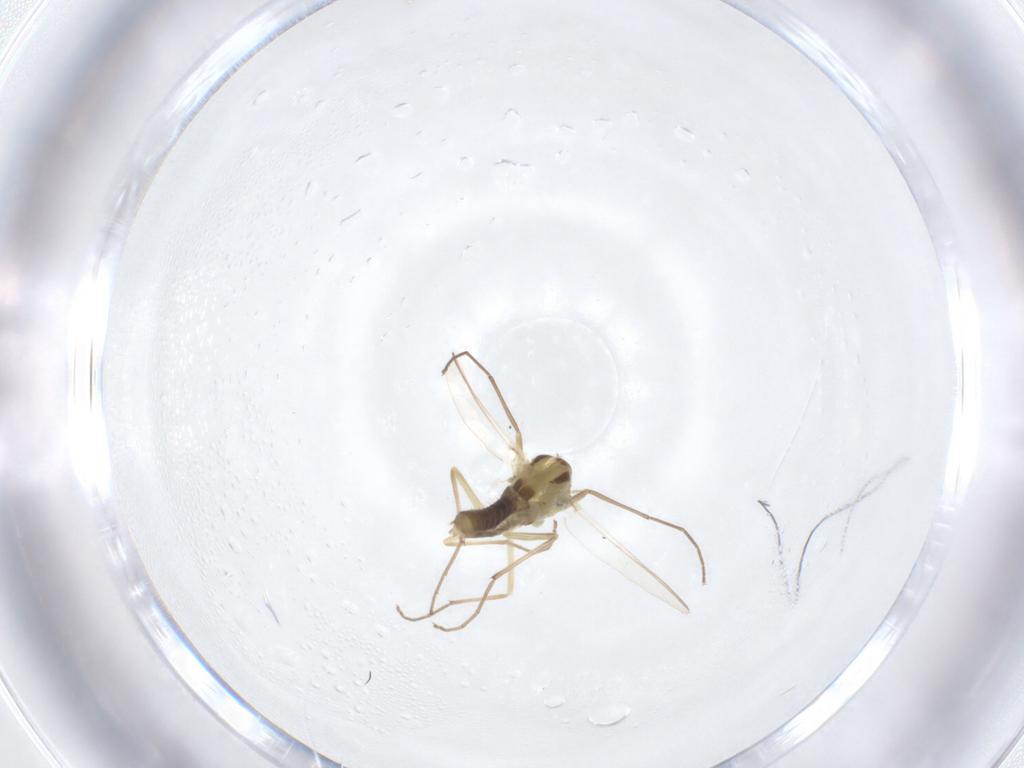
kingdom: Animalia
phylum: Arthropoda
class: Insecta
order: Diptera
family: Chironomidae
